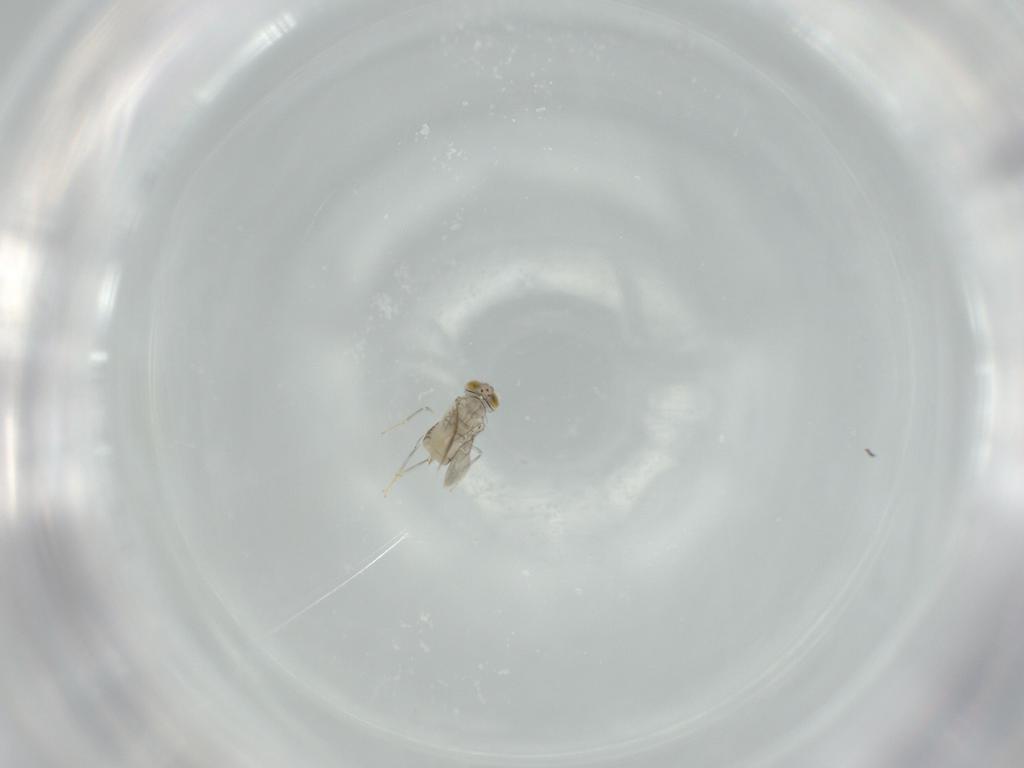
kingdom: Animalia
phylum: Arthropoda
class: Insecta
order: Hymenoptera
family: Aphelinidae
